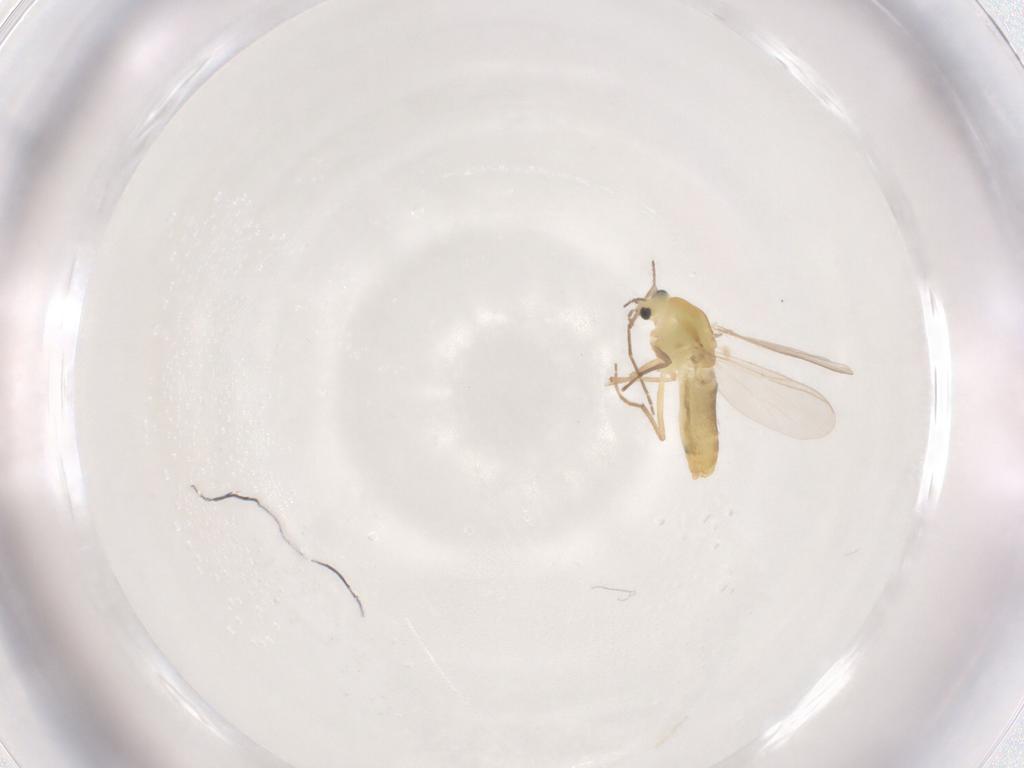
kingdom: Animalia
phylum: Arthropoda
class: Insecta
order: Diptera
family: Chironomidae
